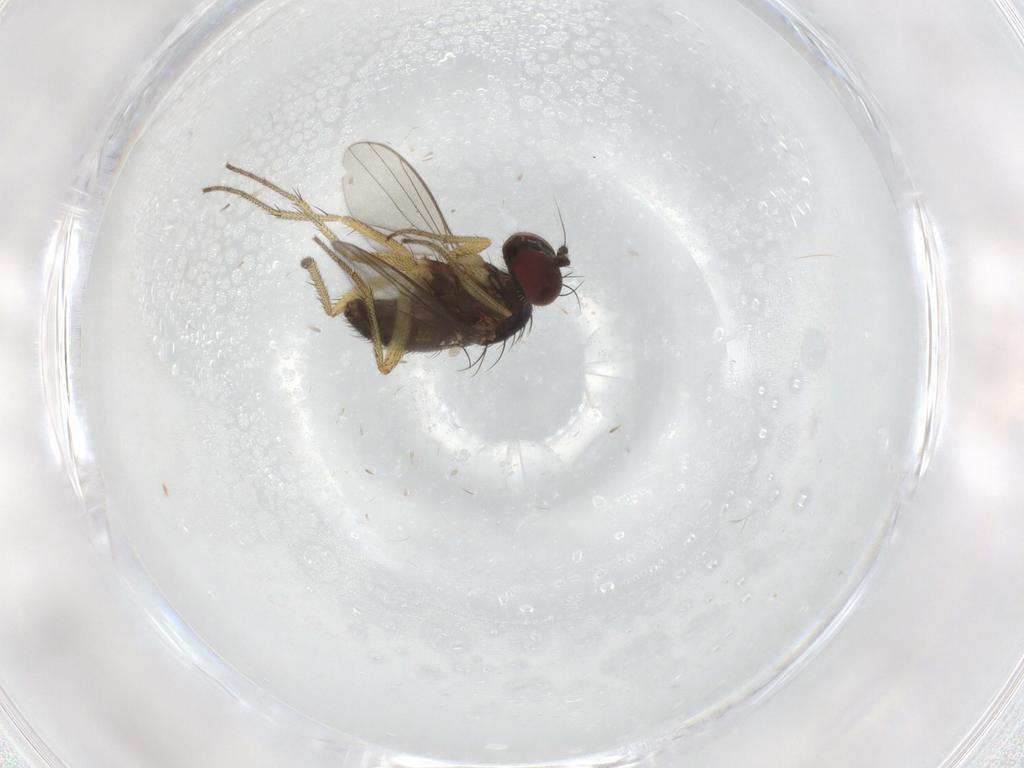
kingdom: Animalia
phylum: Arthropoda
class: Insecta
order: Diptera
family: Dolichopodidae
